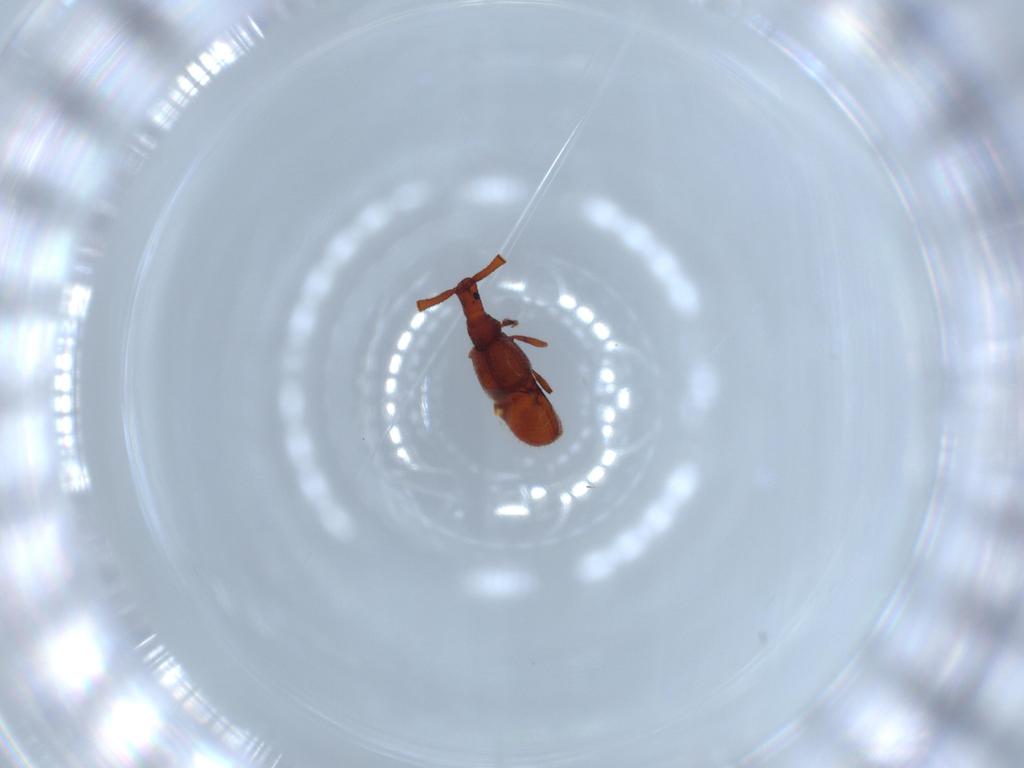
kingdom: Animalia
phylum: Arthropoda
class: Insecta
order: Coleoptera
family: Staphylinidae
